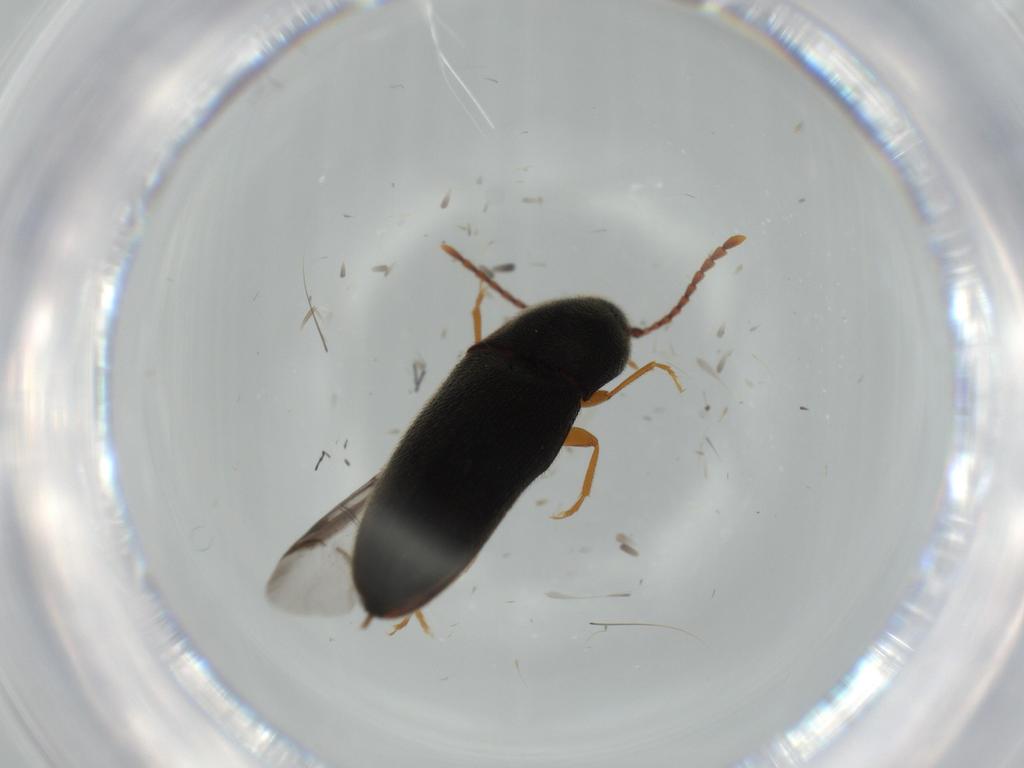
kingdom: Animalia
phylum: Arthropoda
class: Insecta
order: Coleoptera
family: Elateridae
